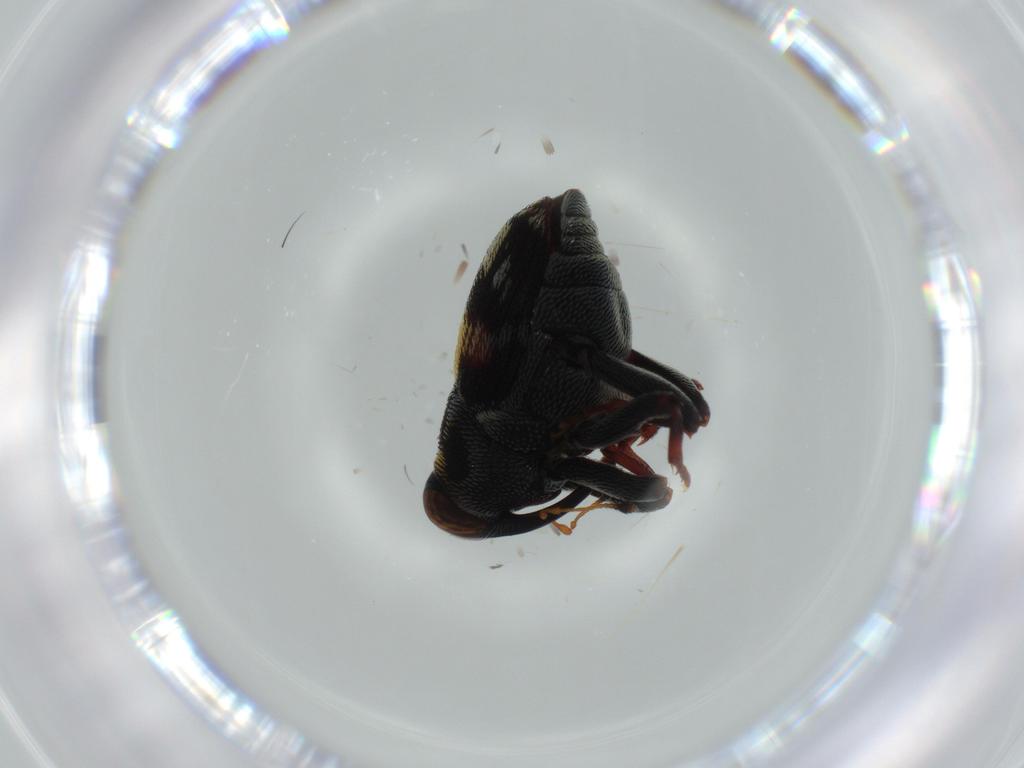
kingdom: Animalia
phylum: Arthropoda
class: Insecta
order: Coleoptera
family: Curculionidae
